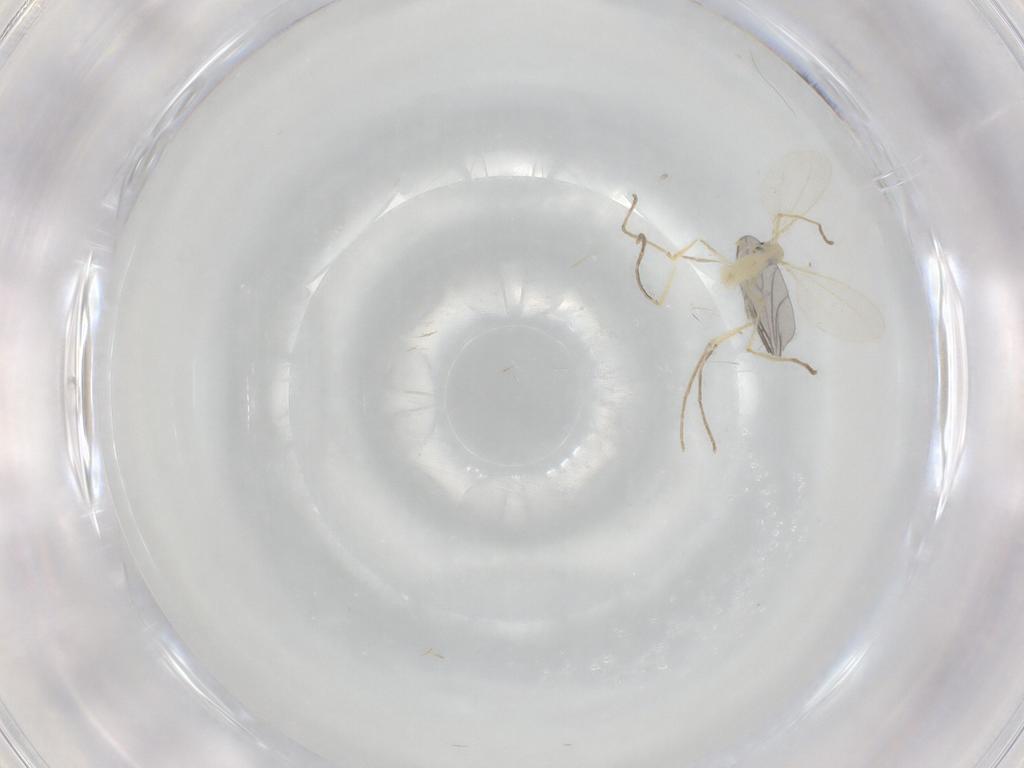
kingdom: Animalia
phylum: Arthropoda
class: Insecta
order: Diptera
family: Cecidomyiidae
